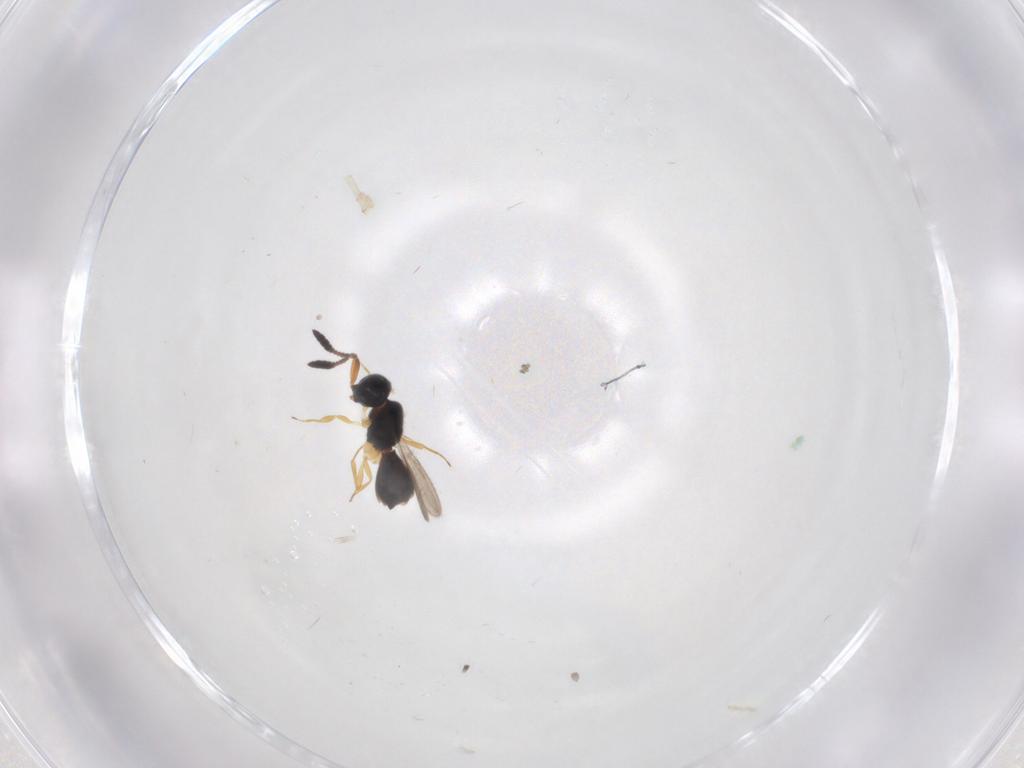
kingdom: Animalia
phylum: Arthropoda
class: Insecta
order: Hymenoptera
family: Scelionidae
